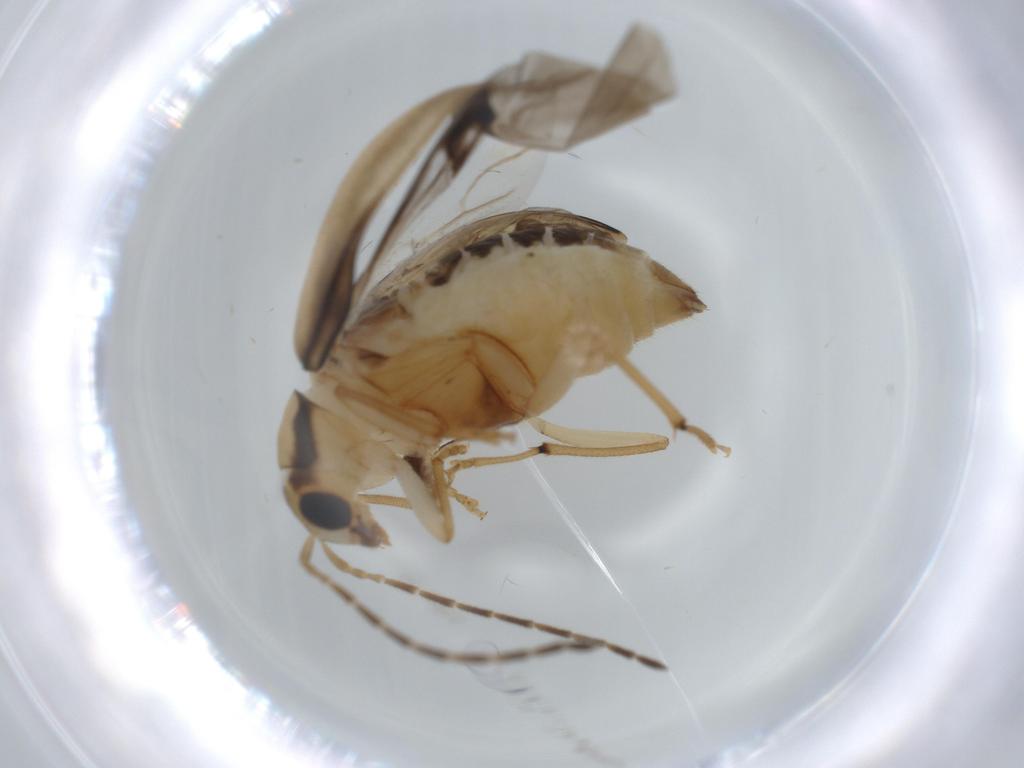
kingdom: Animalia
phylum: Arthropoda
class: Insecta
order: Coleoptera
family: Chrysomelidae
